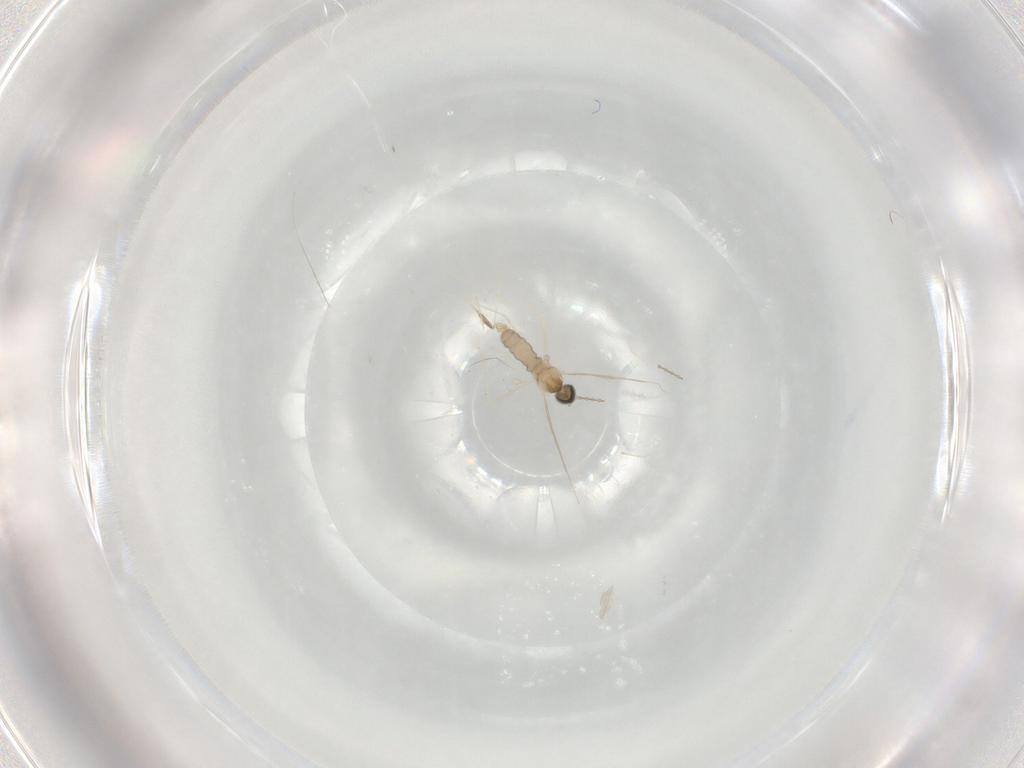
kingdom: Animalia
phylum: Arthropoda
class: Insecta
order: Diptera
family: Cecidomyiidae
